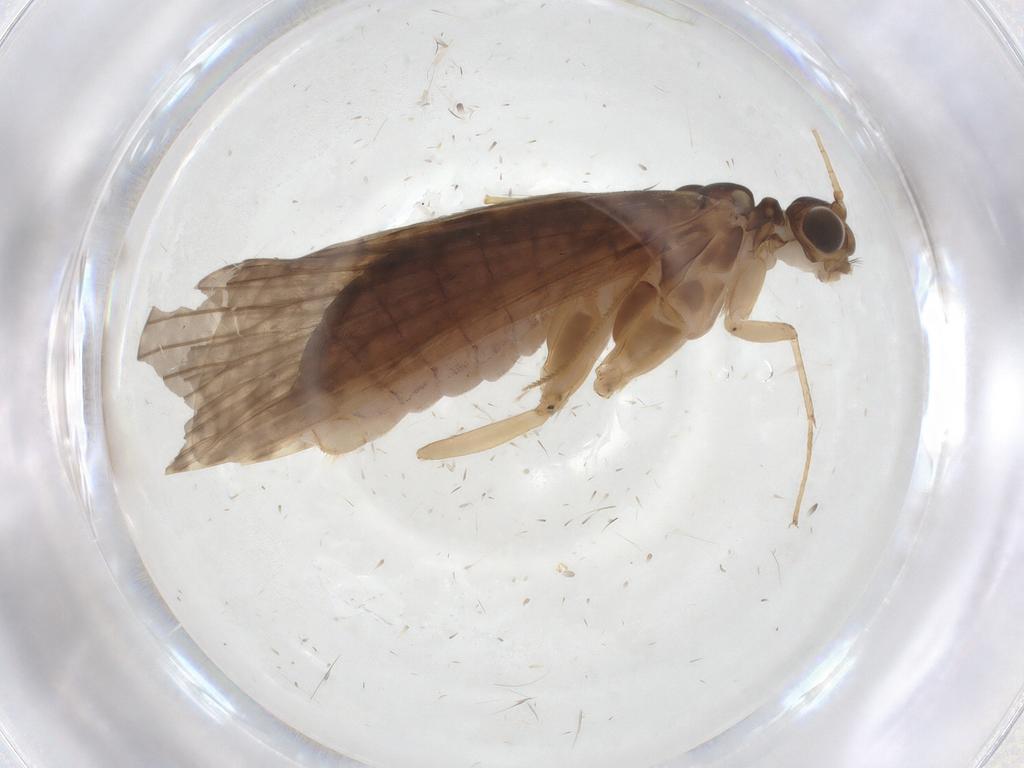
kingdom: Animalia
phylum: Arthropoda
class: Insecta
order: Trichoptera
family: Hydropsychidae
